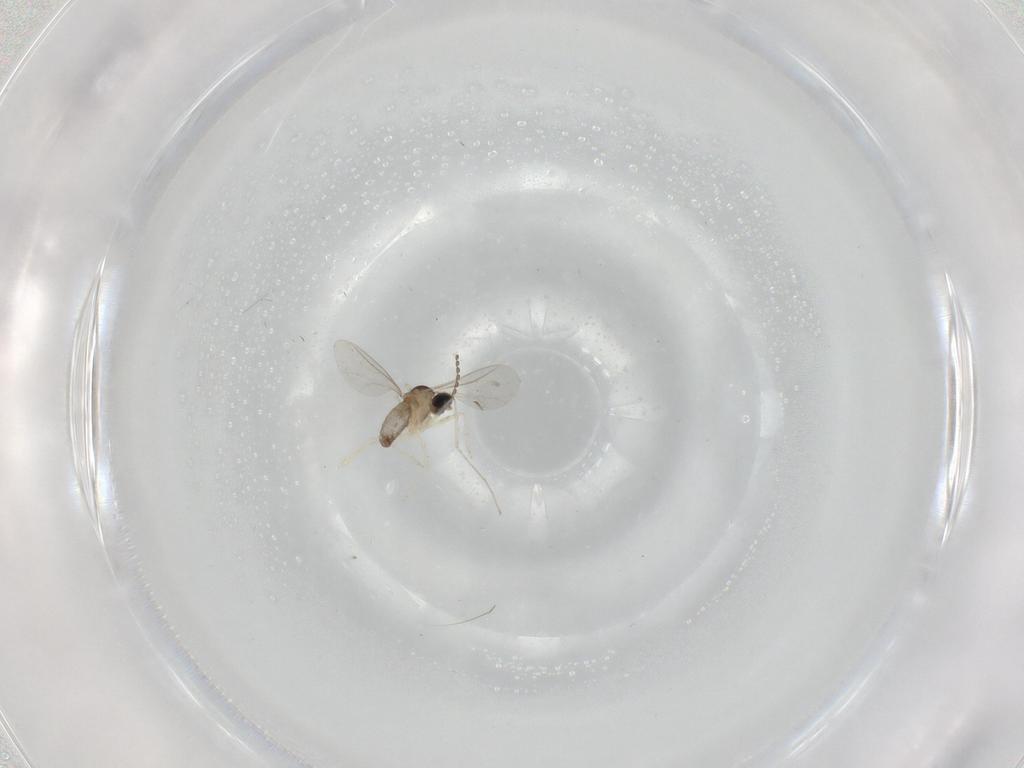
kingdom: Animalia
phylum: Arthropoda
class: Insecta
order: Diptera
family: Cecidomyiidae
